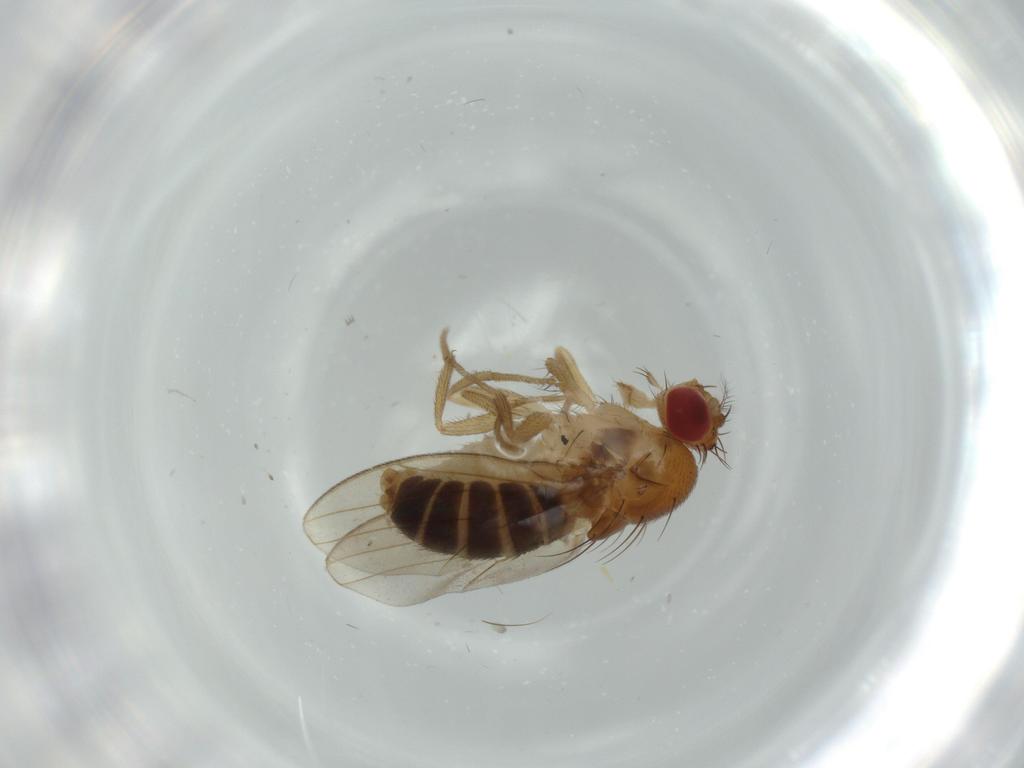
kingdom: Animalia
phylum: Arthropoda
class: Insecta
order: Diptera
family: Drosophilidae
